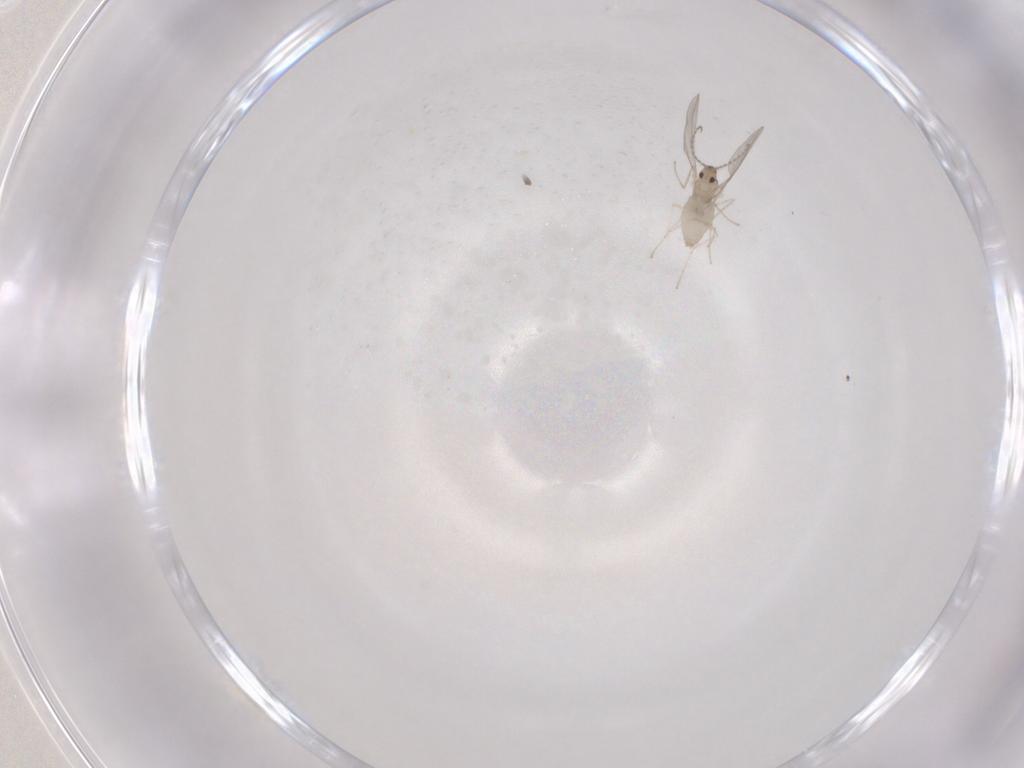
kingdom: Animalia
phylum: Arthropoda
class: Insecta
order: Diptera
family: Cecidomyiidae
